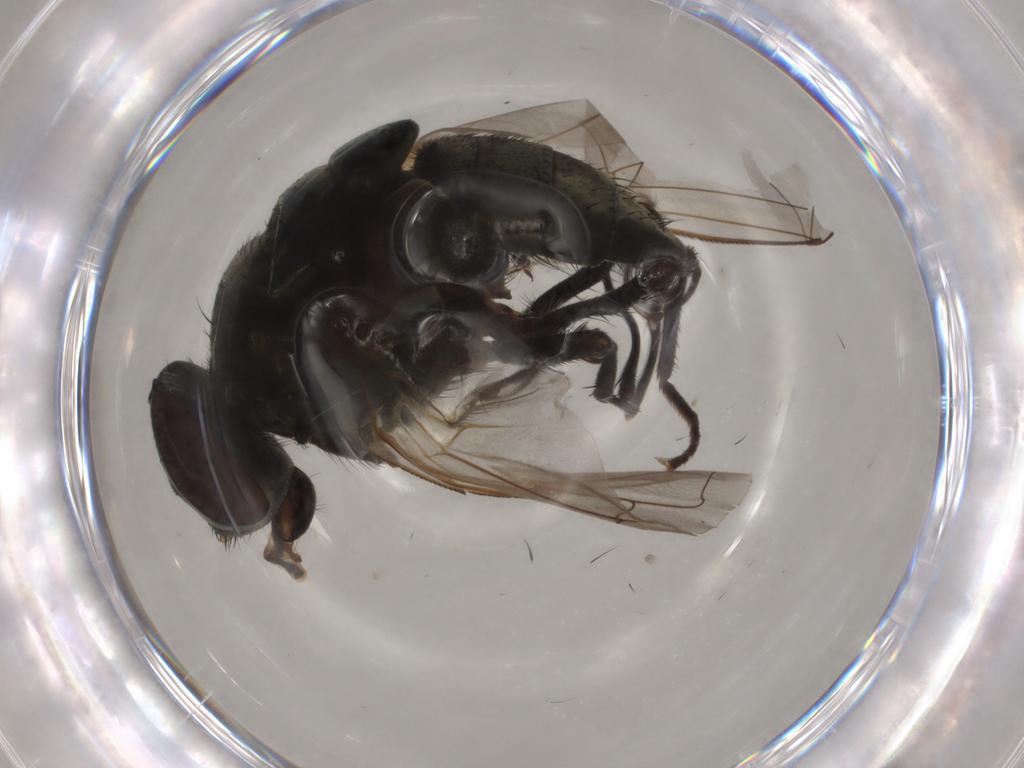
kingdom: Animalia
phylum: Arthropoda
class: Insecta
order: Diptera
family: Muscidae
